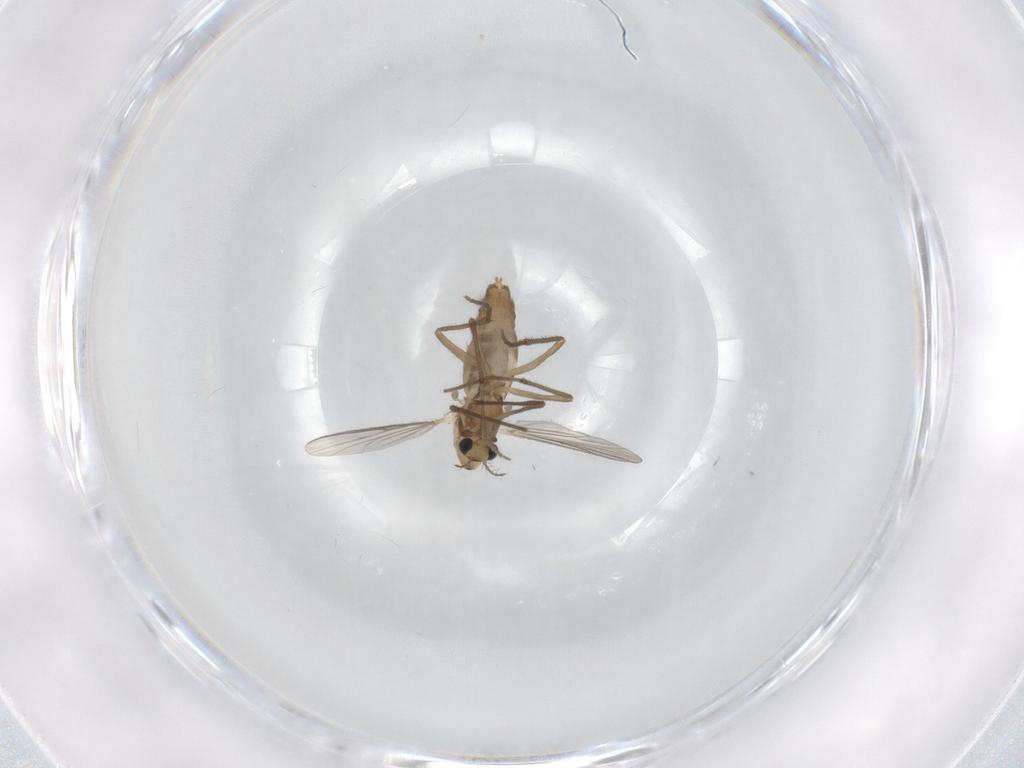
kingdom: Animalia
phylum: Arthropoda
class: Insecta
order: Diptera
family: Chironomidae
